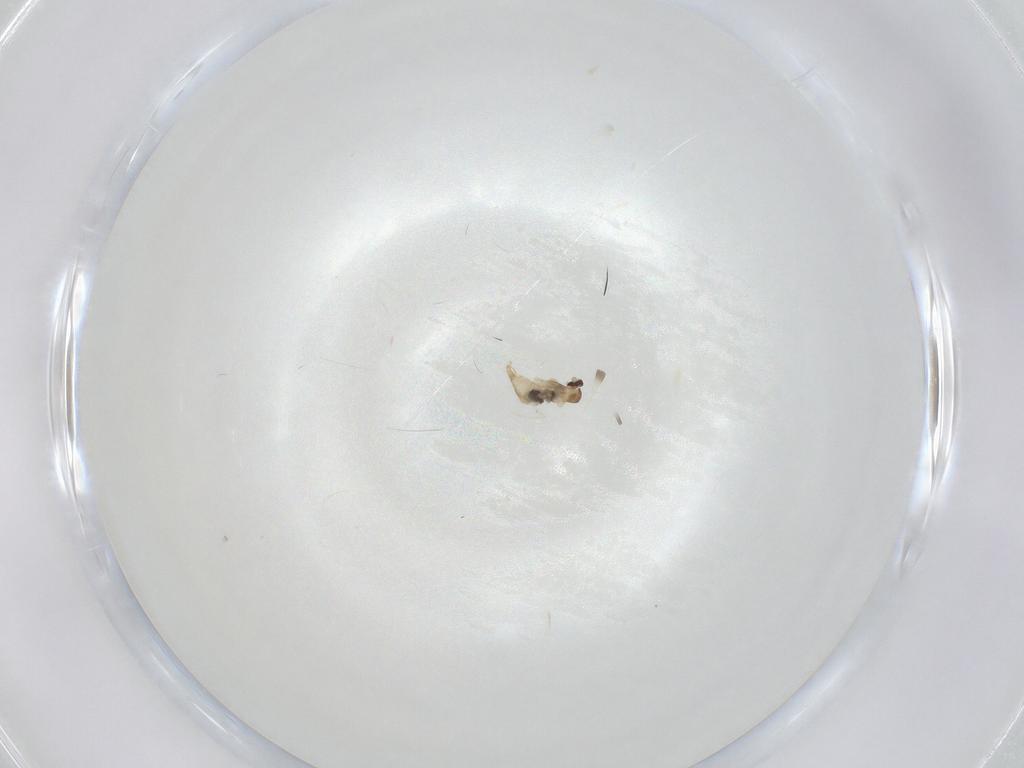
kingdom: Animalia
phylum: Arthropoda
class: Insecta
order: Diptera
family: Cecidomyiidae
